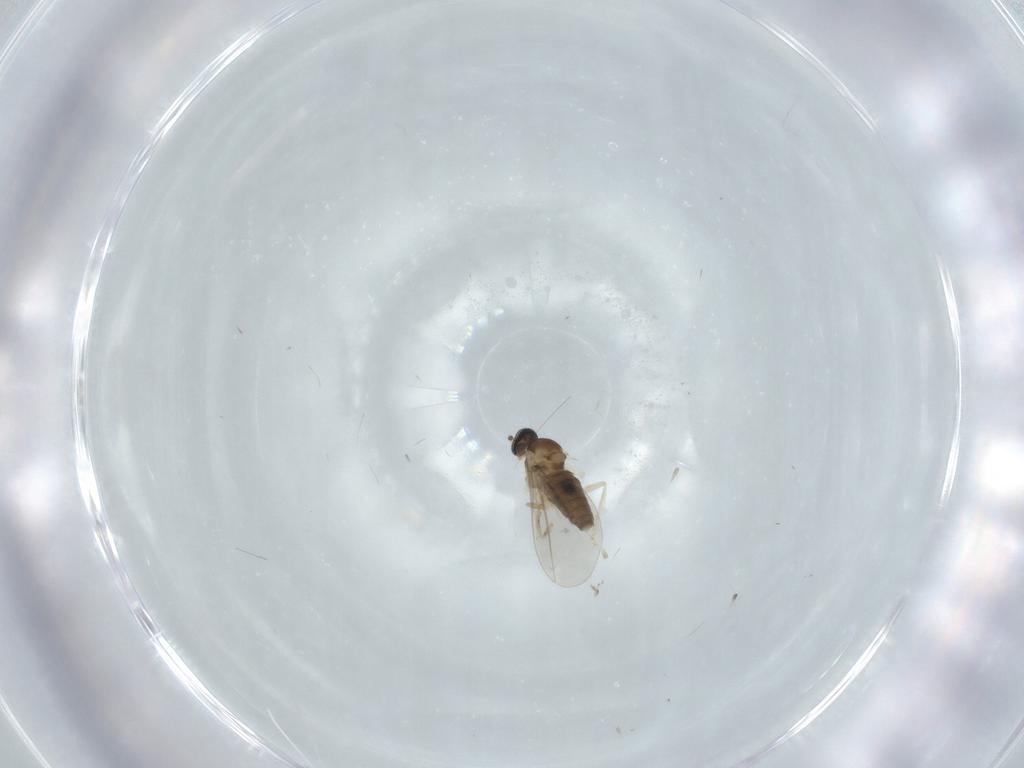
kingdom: Animalia
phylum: Arthropoda
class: Insecta
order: Diptera
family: Cecidomyiidae
